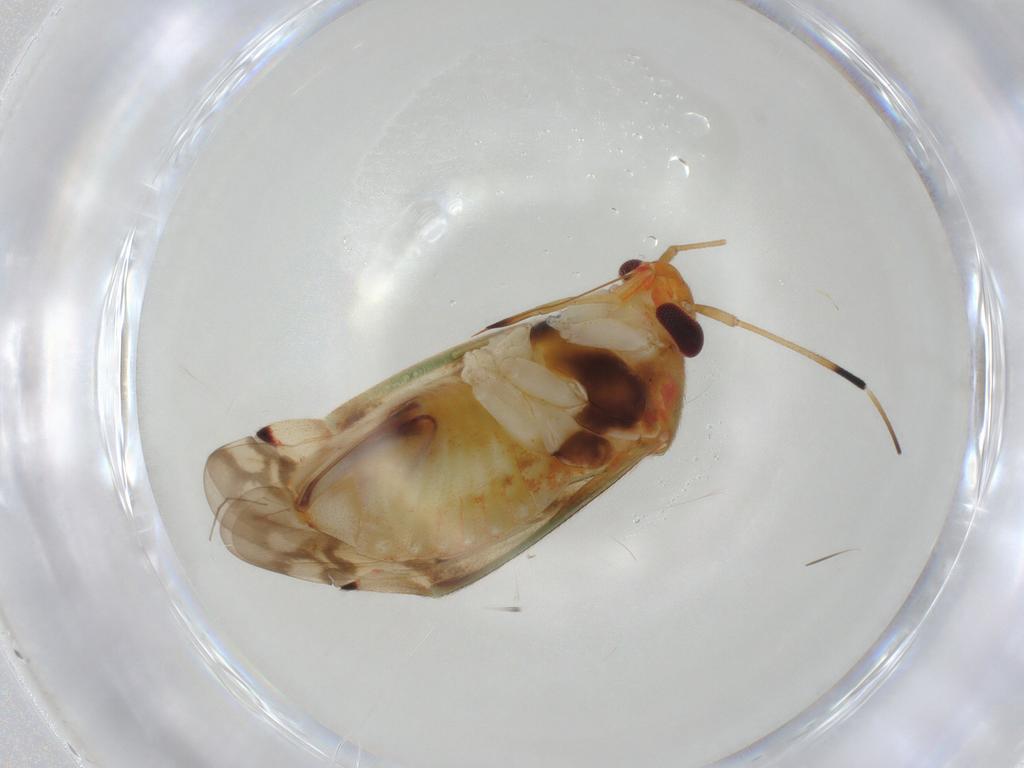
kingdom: Animalia
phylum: Arthropoda
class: Insecta
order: Hemiptera
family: Miridae
